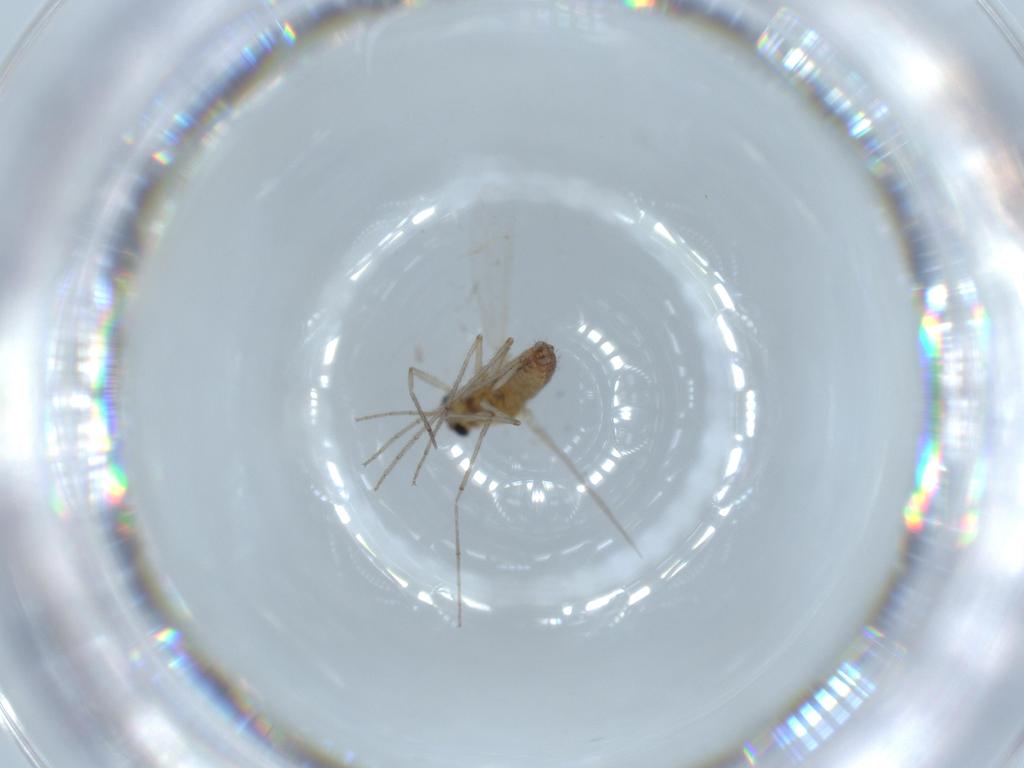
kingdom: Animalia
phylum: Arthropoda
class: Insecta
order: Diptera
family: Chironomidae
